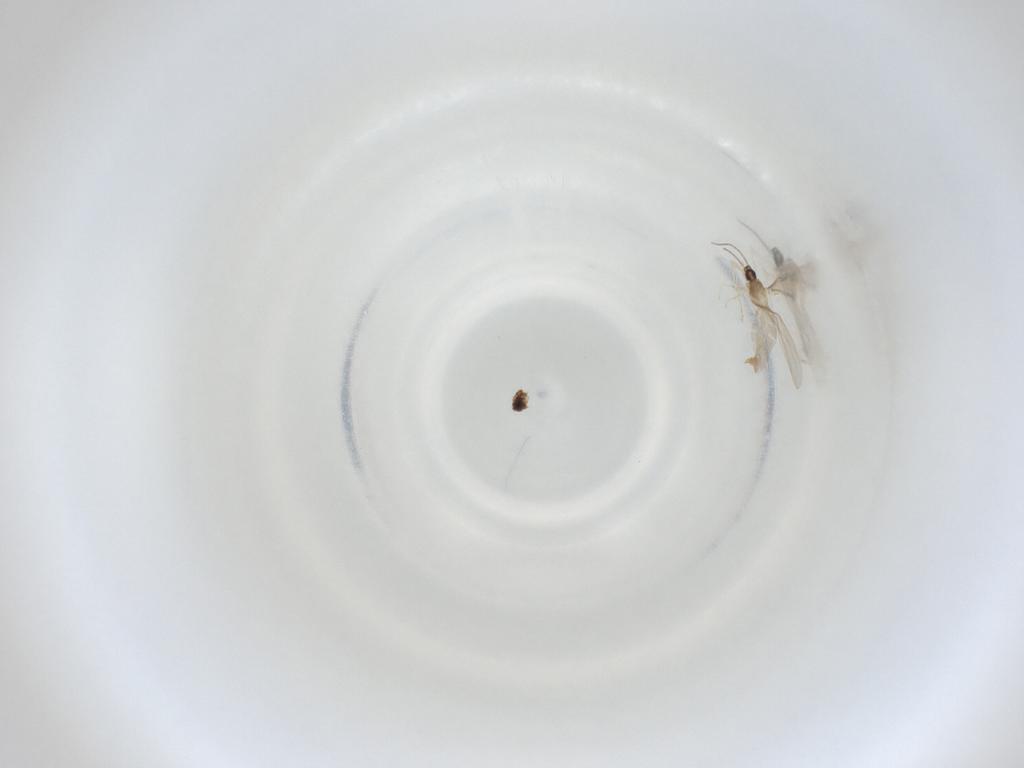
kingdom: Animalia
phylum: Arthropoda
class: Insecta
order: Diptera
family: Cecidomyiidae
